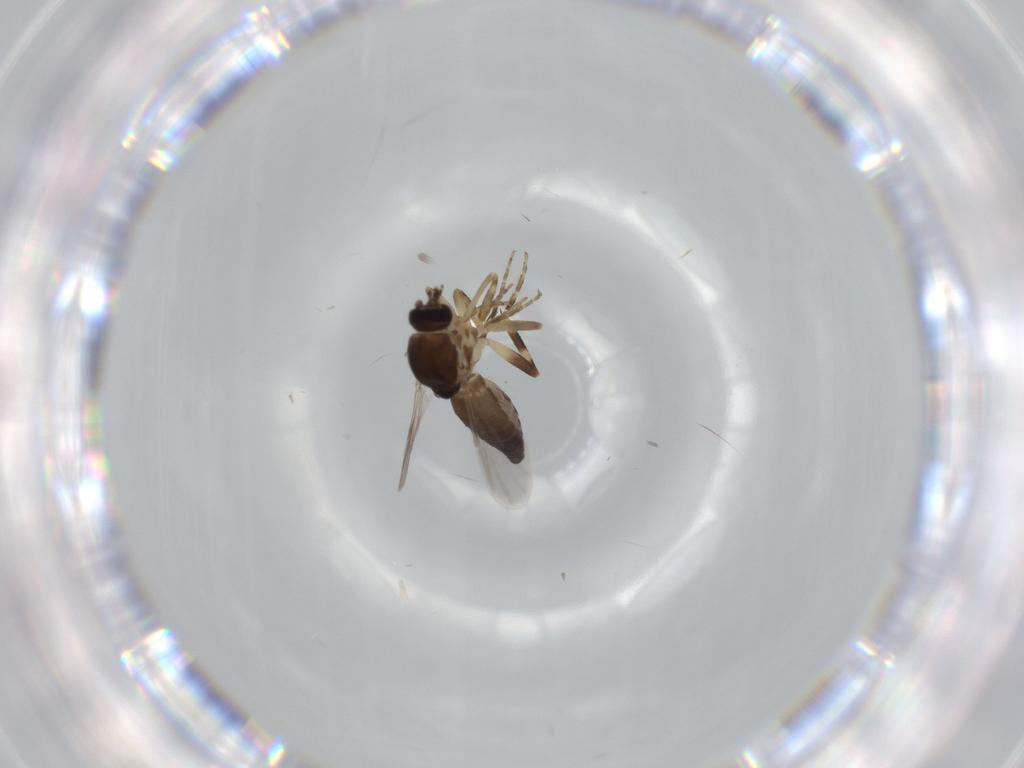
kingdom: Animalia
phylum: Arthropoda
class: Insecta
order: Diptera
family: Ceratopogonidae
